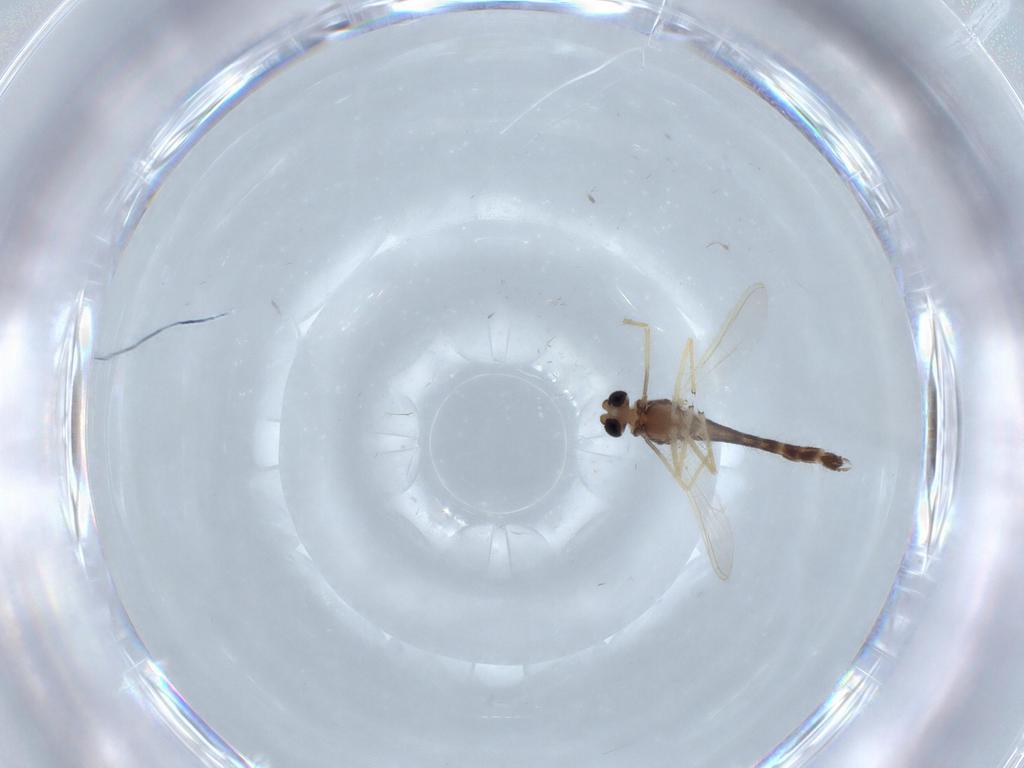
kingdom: Animalia
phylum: Arthropoda
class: Insecta
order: Diptera
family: Chironomidae
